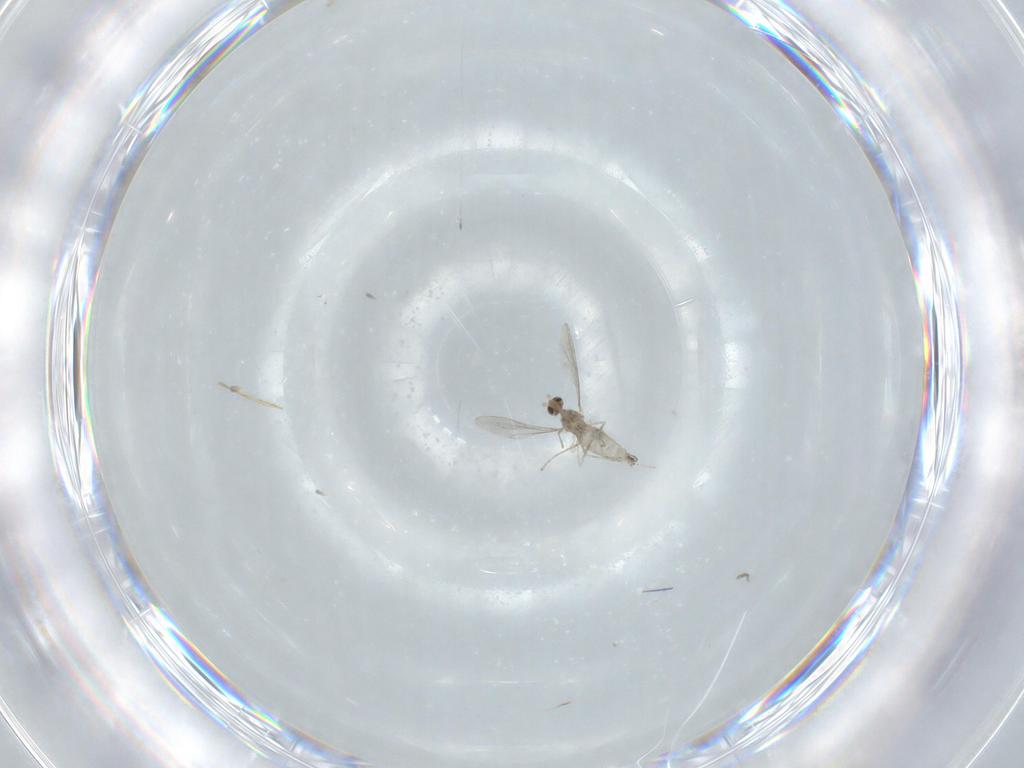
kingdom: Animalia
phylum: Arthropoda
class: Insecta
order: Diptera
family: Cecidomyiidae
